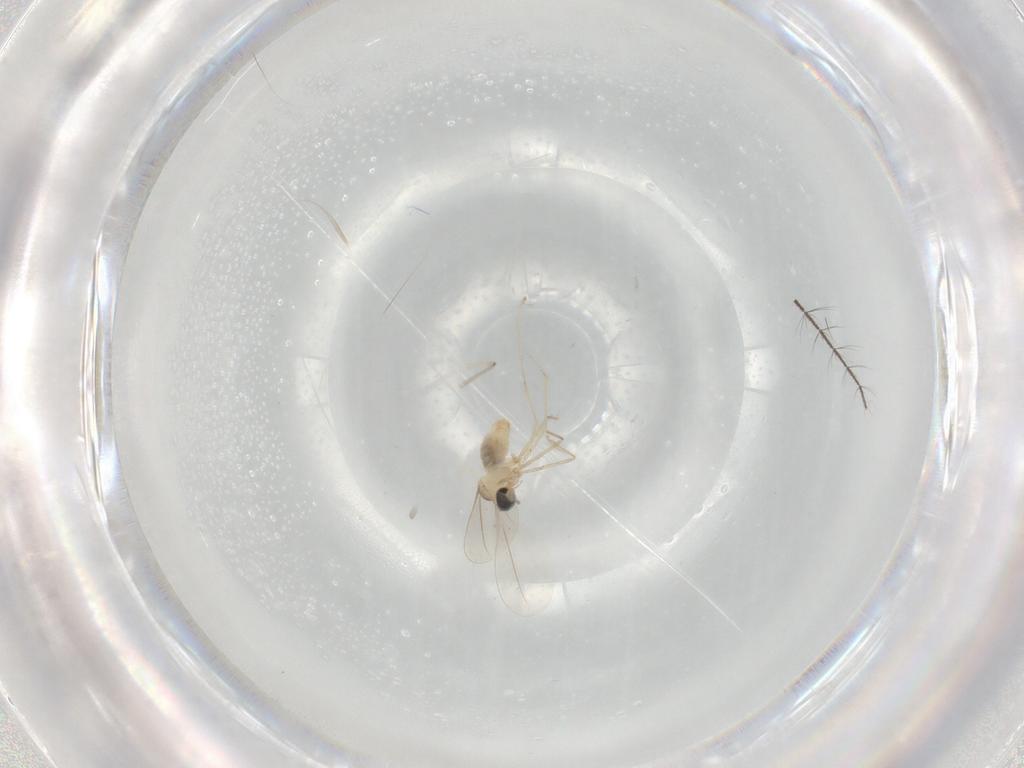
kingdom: Animalia
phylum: Arthropoda
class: Insecta
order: Diptera
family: Psychodidae
